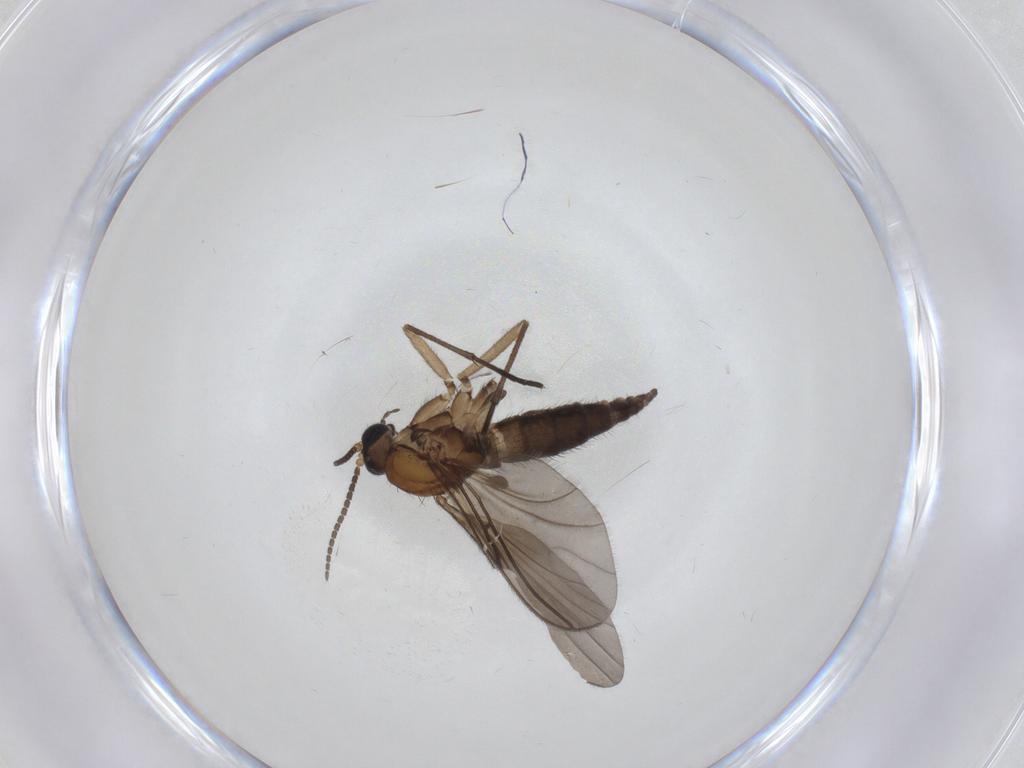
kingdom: Animalia
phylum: Arthropoda
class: Insecta
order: Diptera
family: Sciaridae
